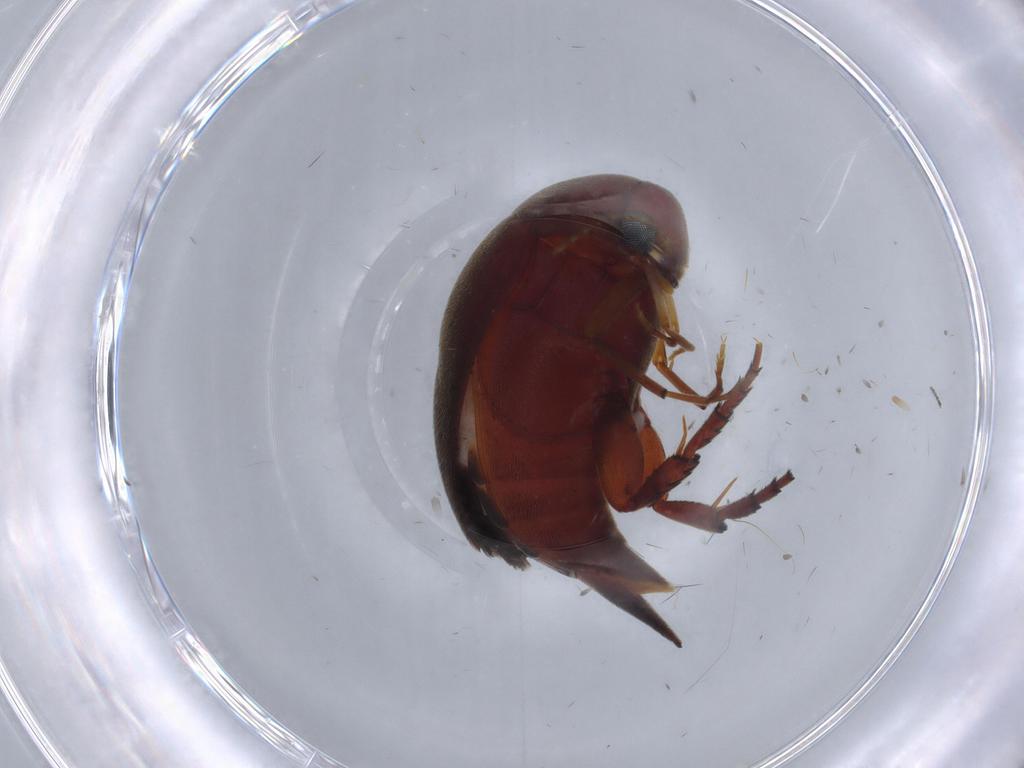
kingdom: Animalia
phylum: Arthropoda
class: Insecta
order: Coleoptera
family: Mordellidae
